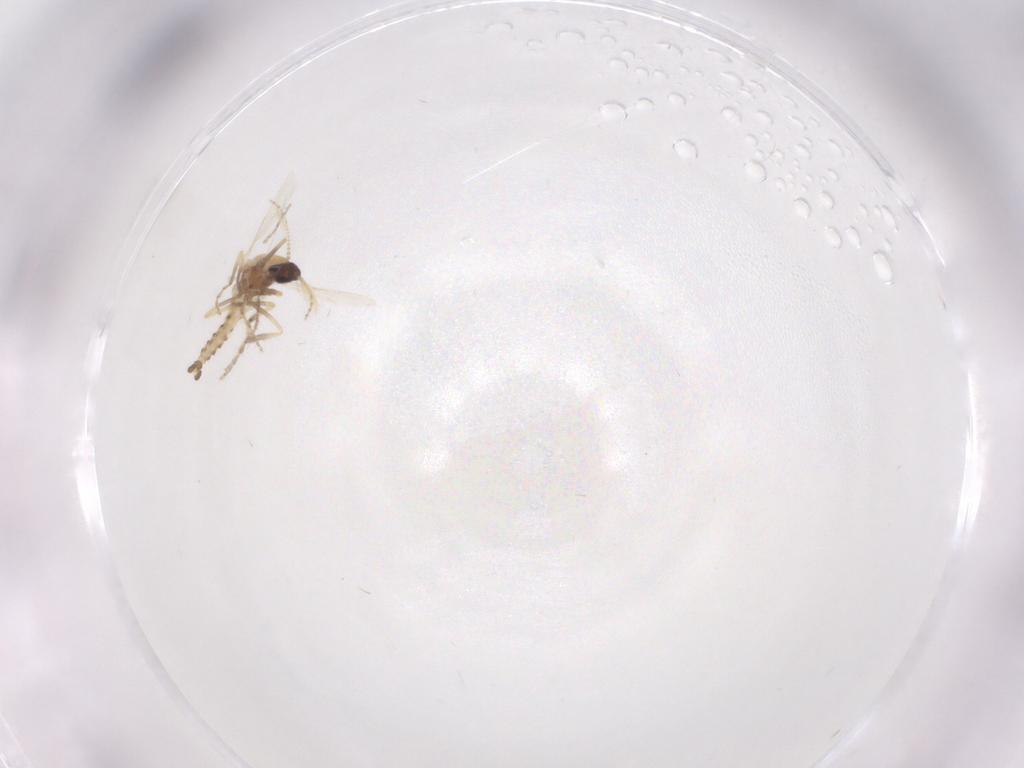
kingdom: Animalia
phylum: Arthropoda
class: Insecta
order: Diptera
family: Ceratopogonidae
